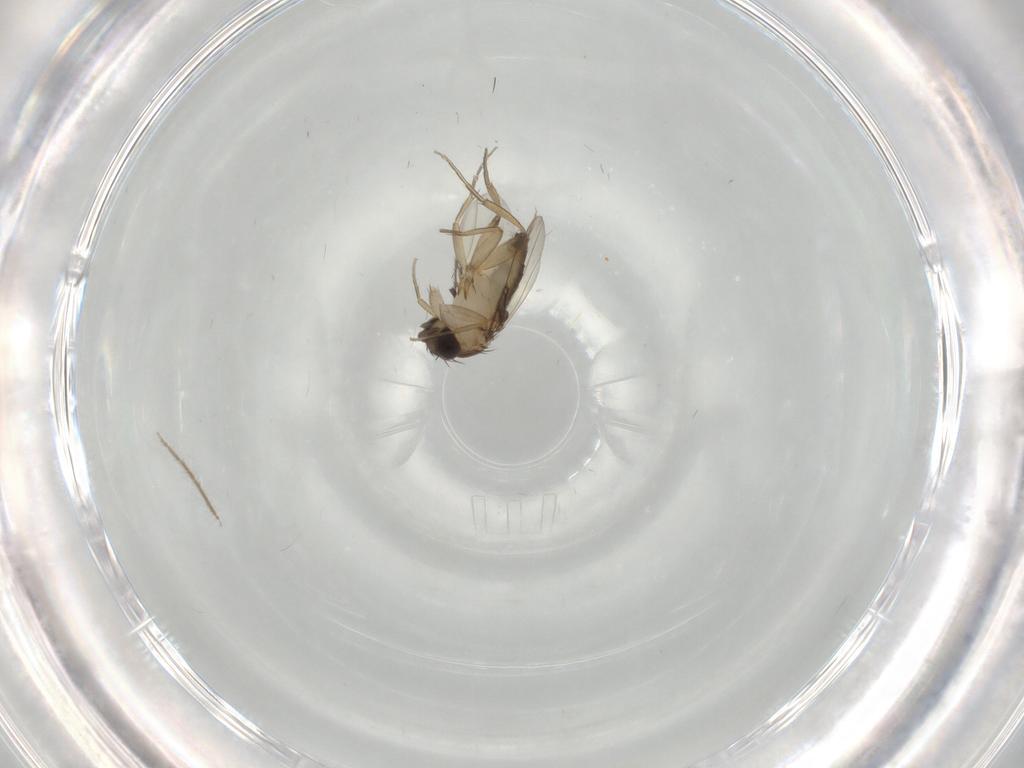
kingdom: Animalia
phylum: Arthropoda
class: Insecta
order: Diptera
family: Phoridae
